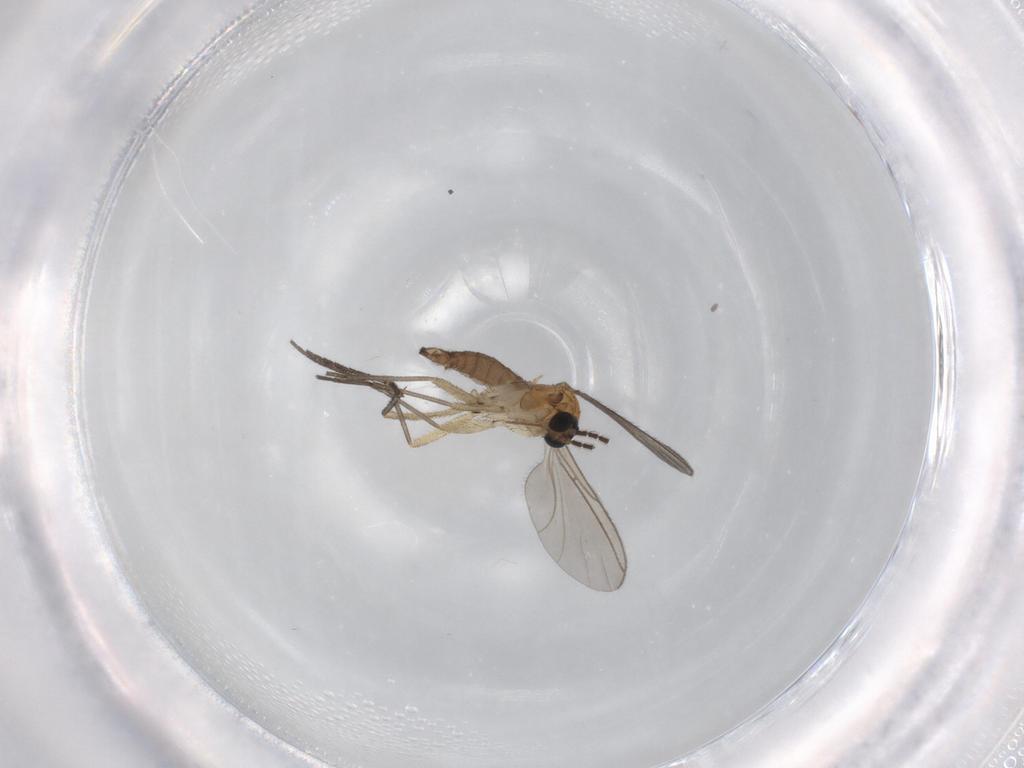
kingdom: Animalia
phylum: Arthropoda
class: Insecta
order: Diptera
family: Sciaridae
